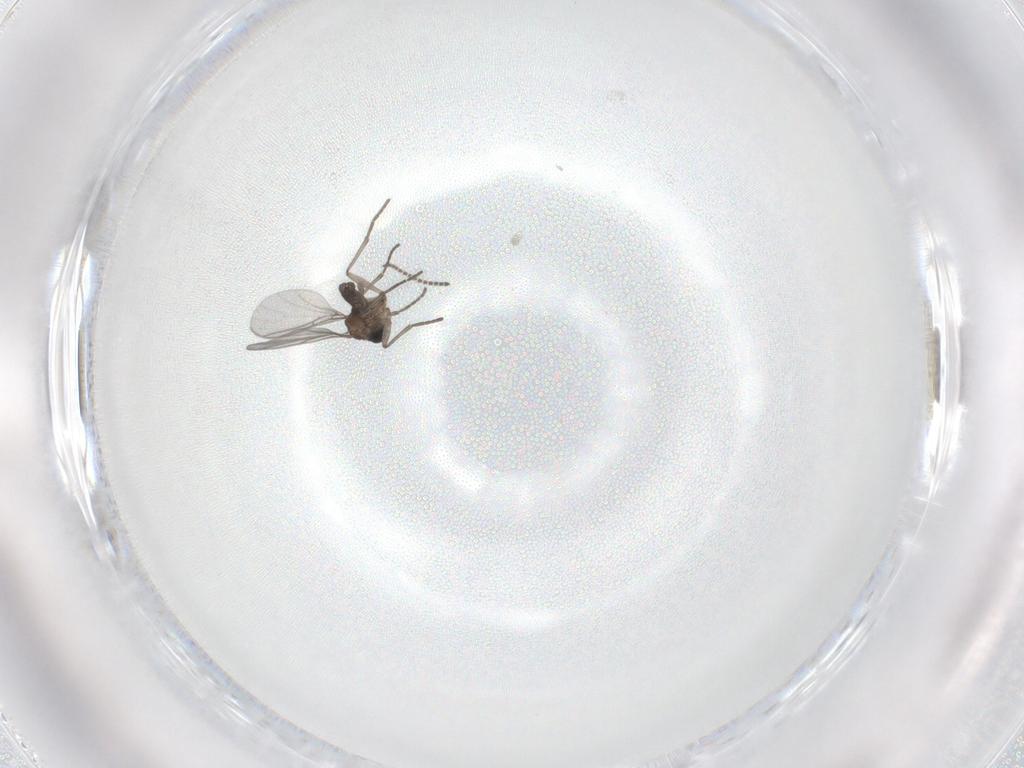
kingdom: Animalia
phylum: Arthropoda
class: Insecta
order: Diptera
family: Sciaridae
